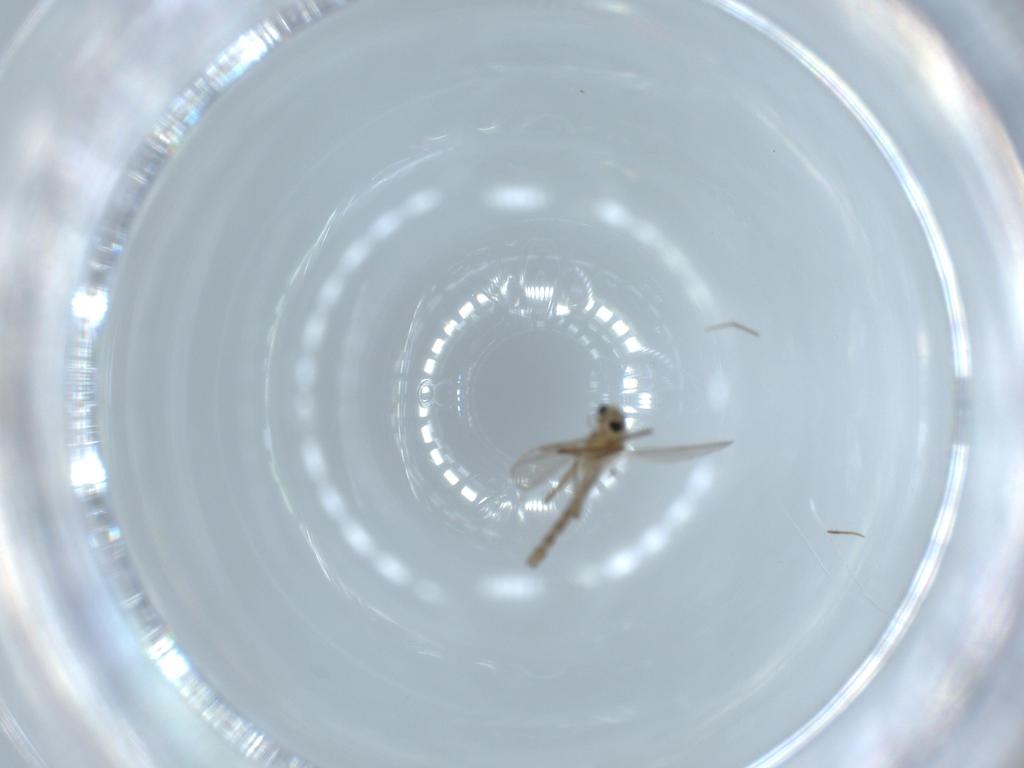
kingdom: Animalia
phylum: Arthropoda
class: Insecta
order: Diptera
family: Chironomidae
